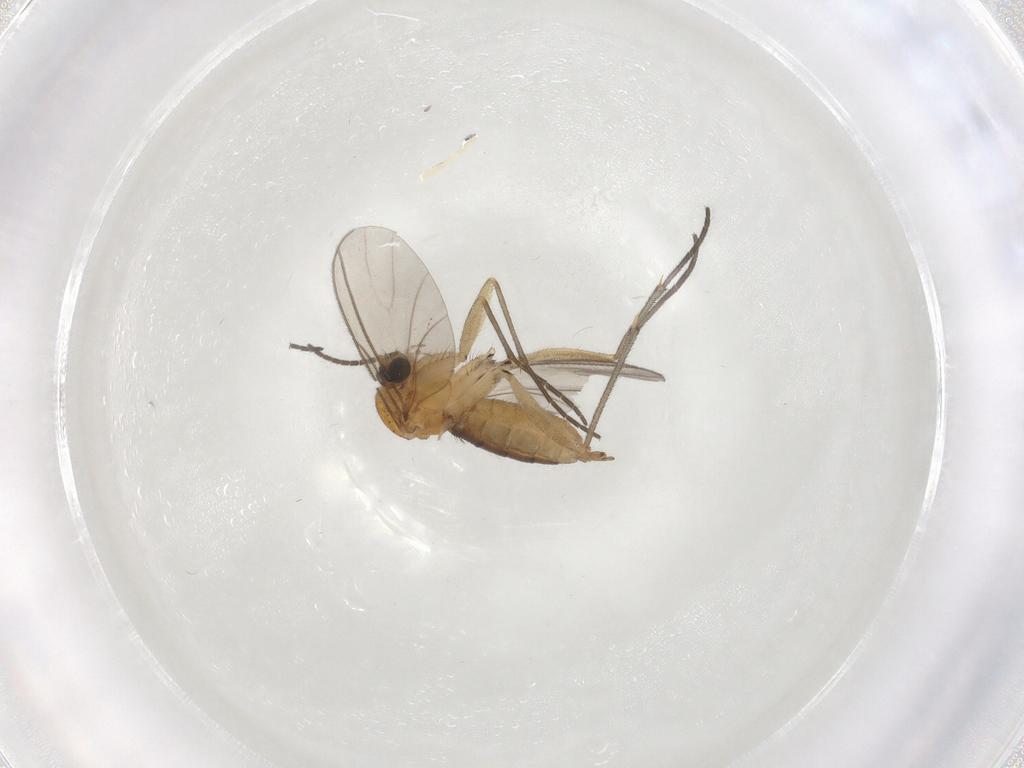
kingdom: Animalia
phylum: Arthropoda
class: Insecta
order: Diptera
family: Sciaridae
